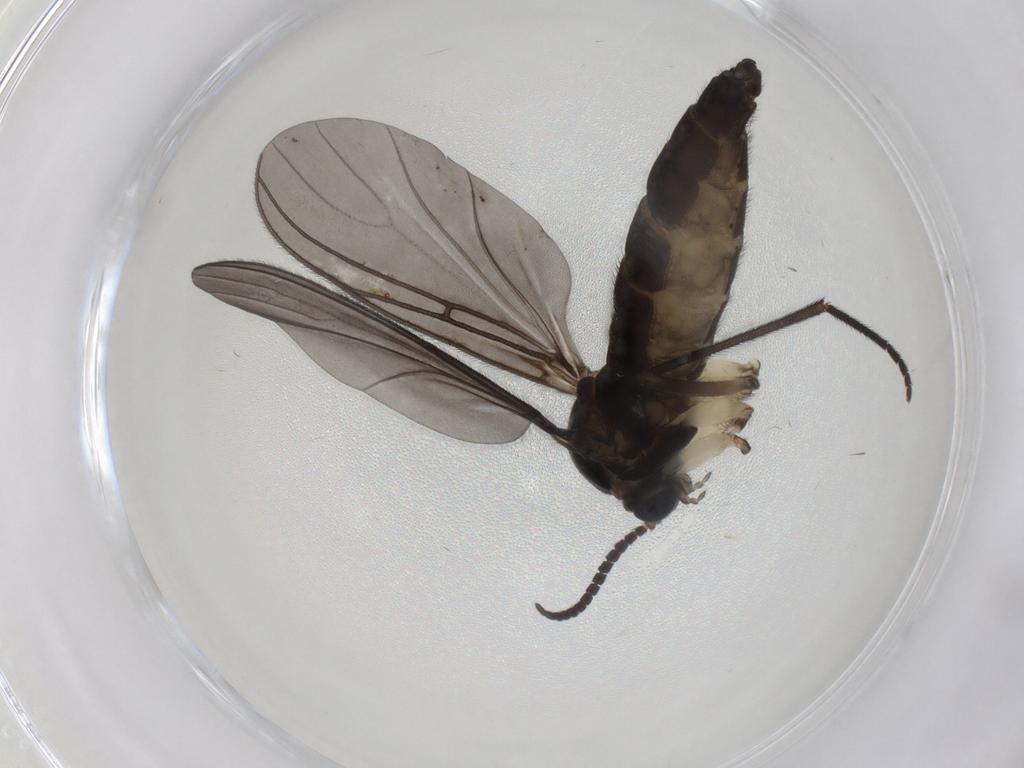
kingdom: Animalia
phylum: Arthropoda
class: Insecta
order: Diptera
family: Sciaridae
